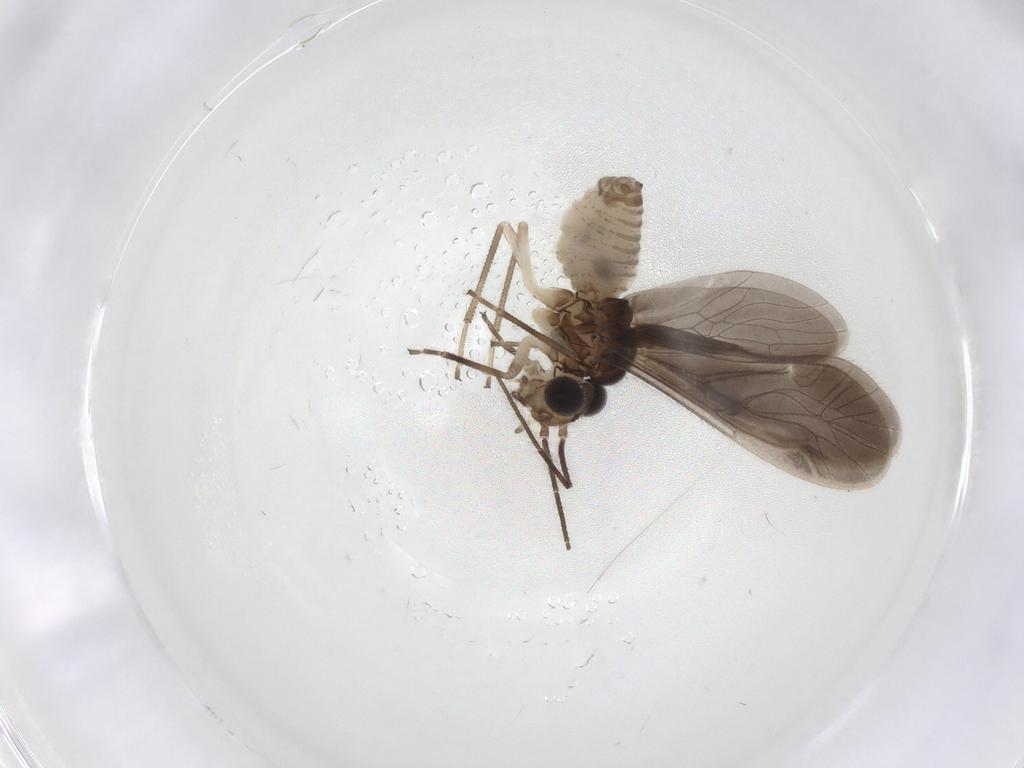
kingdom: Animalia
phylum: Arthropoda
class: Insecta
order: Psocodea
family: Caeciliusidae
